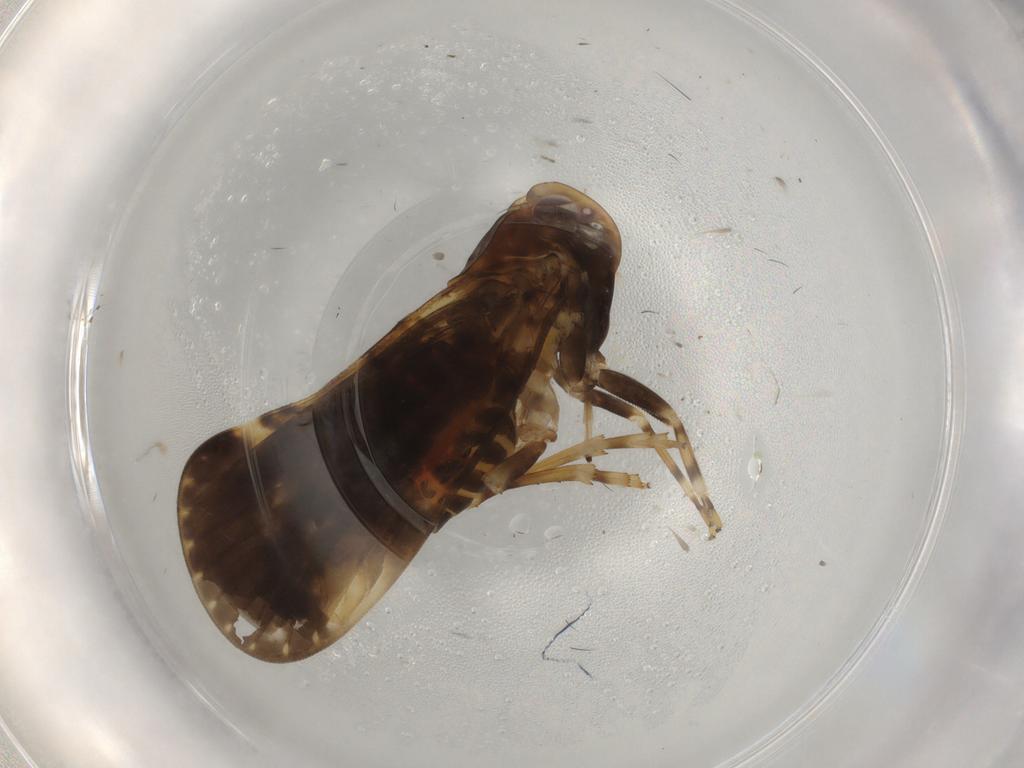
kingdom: Animalia
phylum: Arthropoda
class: Insecta
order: Hemiptera
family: Cixiidae
